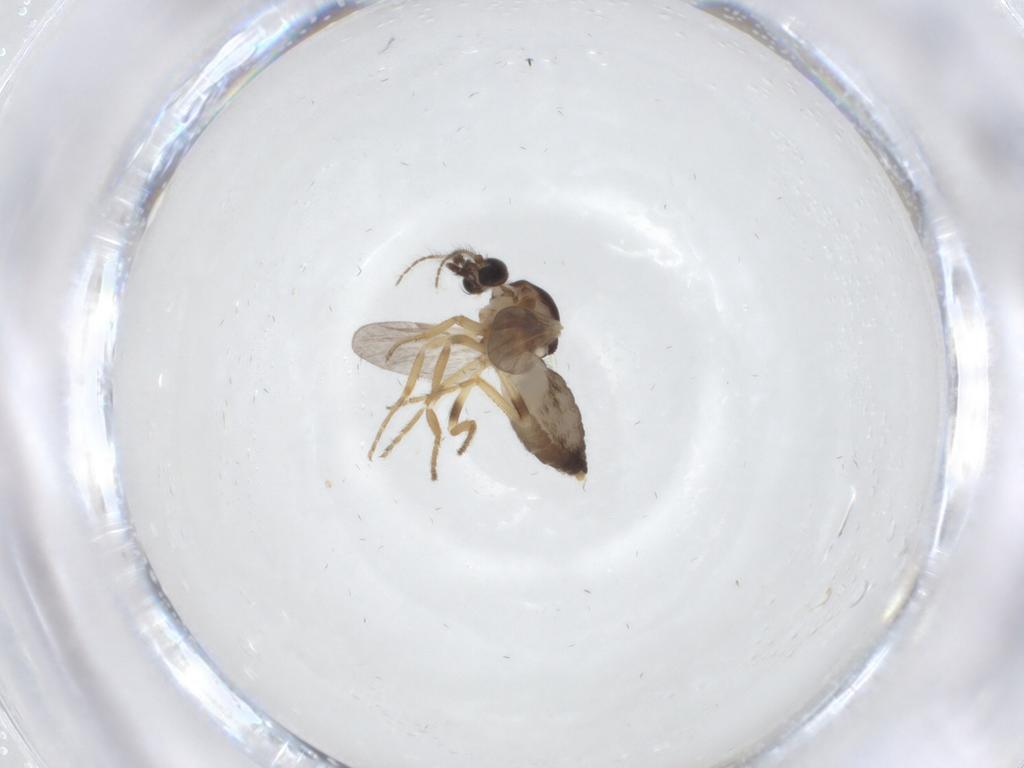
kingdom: Animalia
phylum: Arthropoda
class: Insecta
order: Diptera
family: Ceratopogonidae
